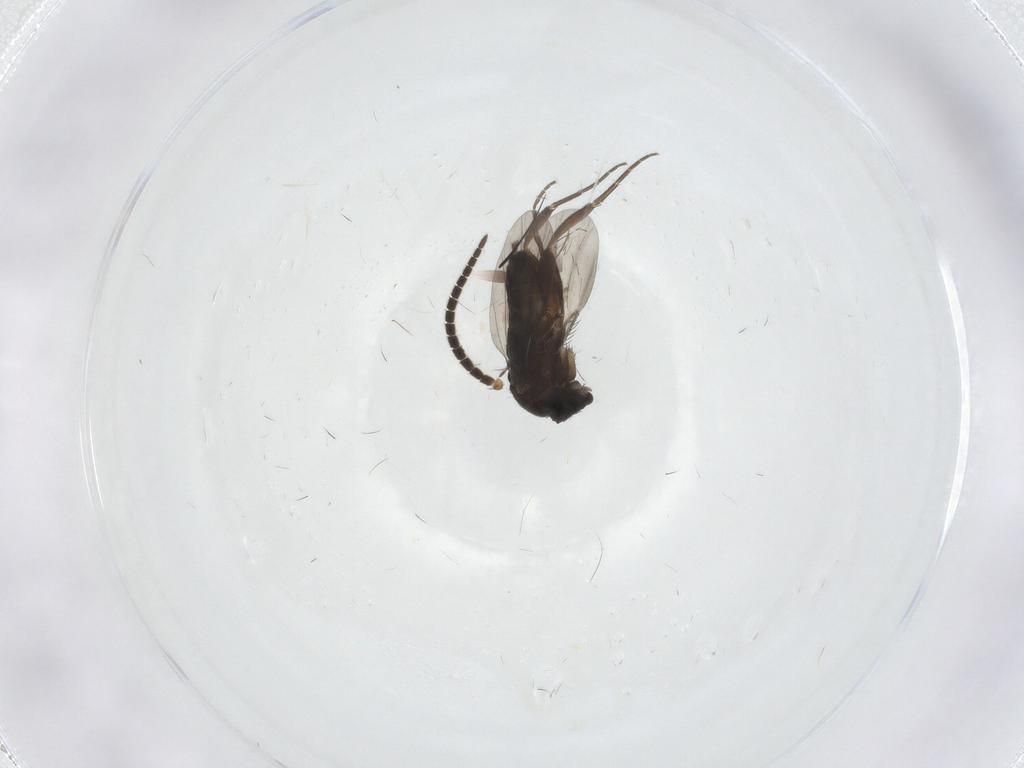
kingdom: Animalia
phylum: Arthropoda
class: Insecta
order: Diptera
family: Phoridae
